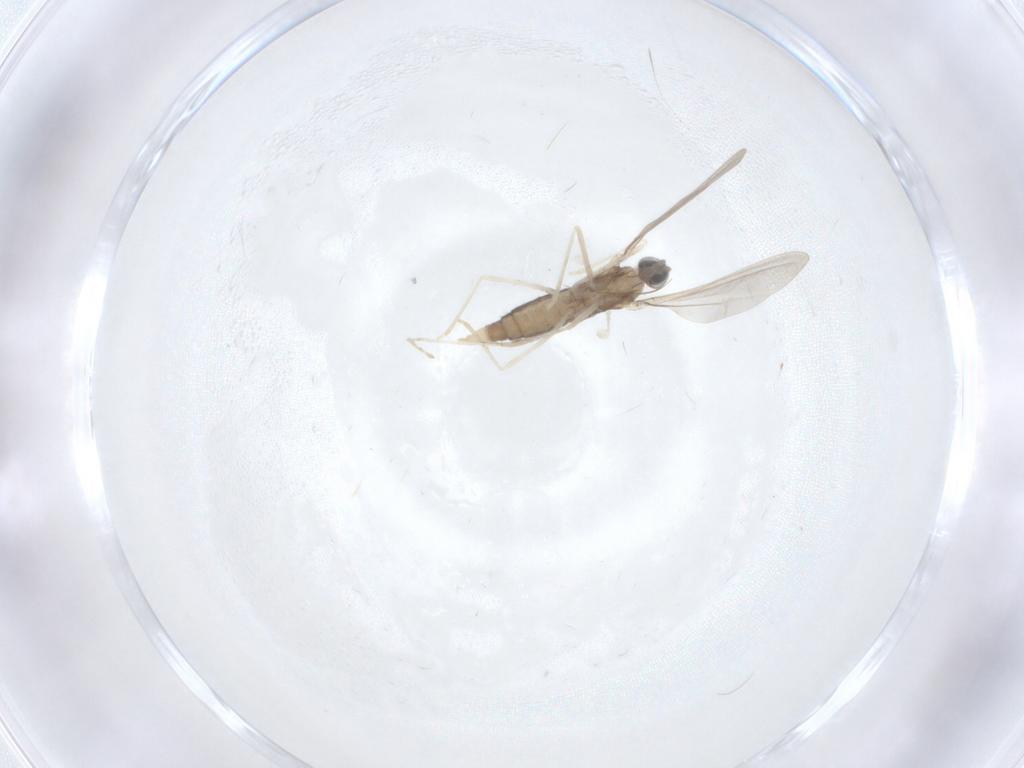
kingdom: Animalia
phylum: Arthropoda
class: Insecta
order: Diptera
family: Cecidomyiidae
